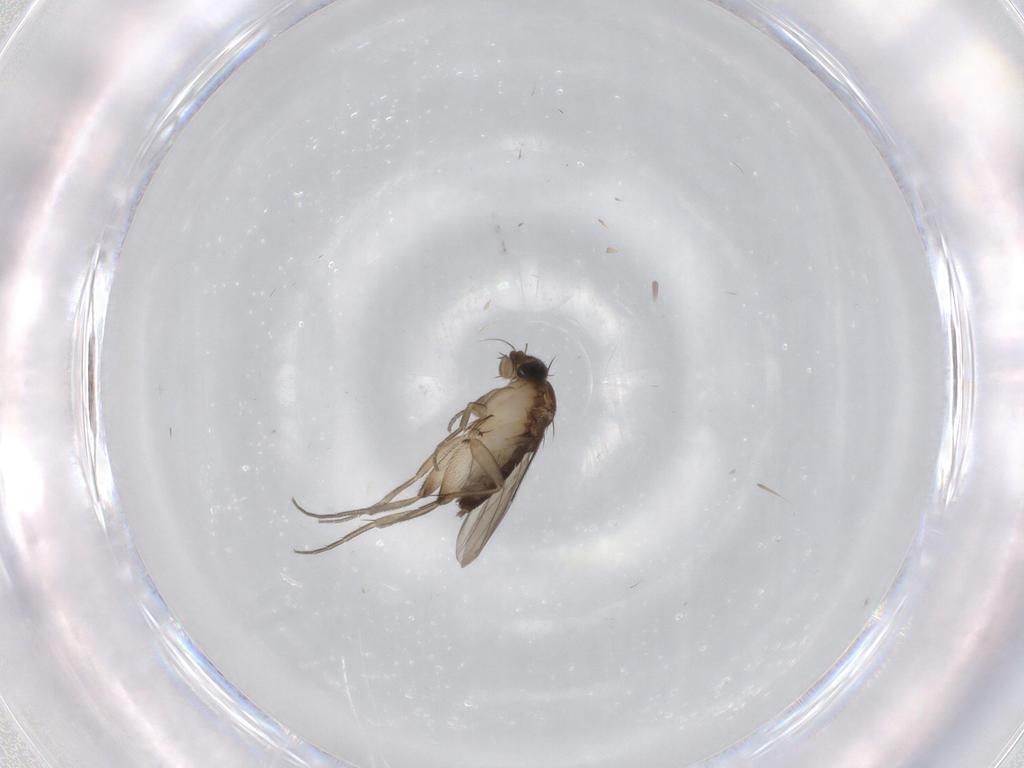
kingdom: Animalia
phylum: Arthropoda
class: Insecta
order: Diptera
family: Phoridae
